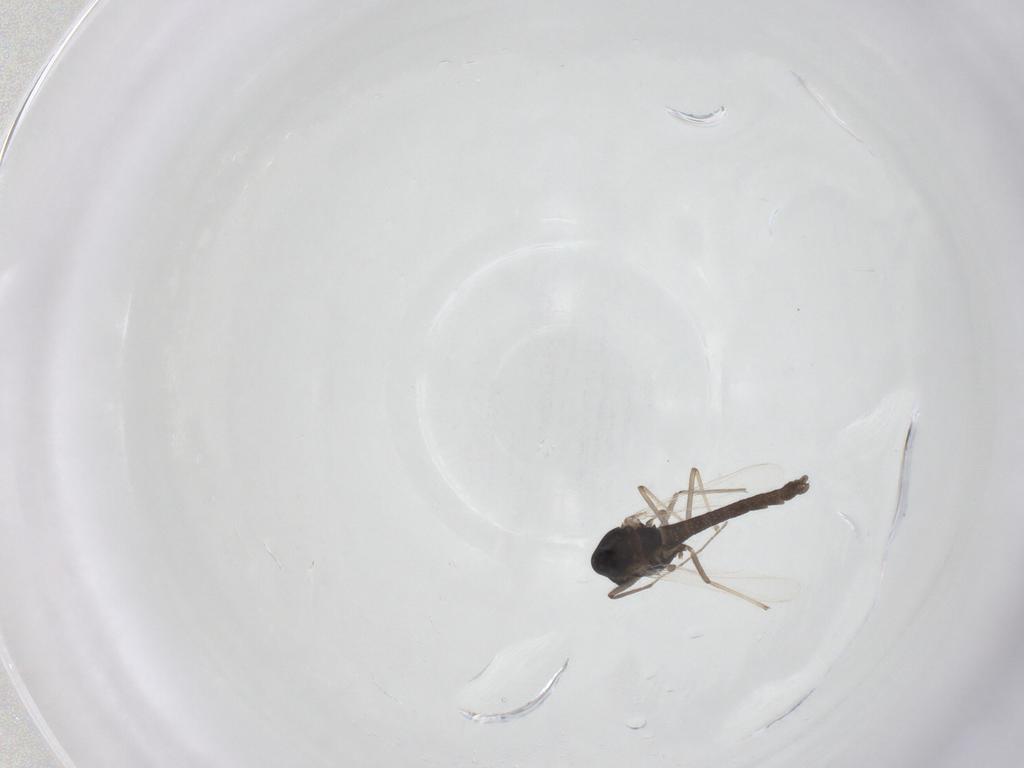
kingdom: Animalia
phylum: Arthropoda
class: Insecta
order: Diptera
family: Chironomidae
